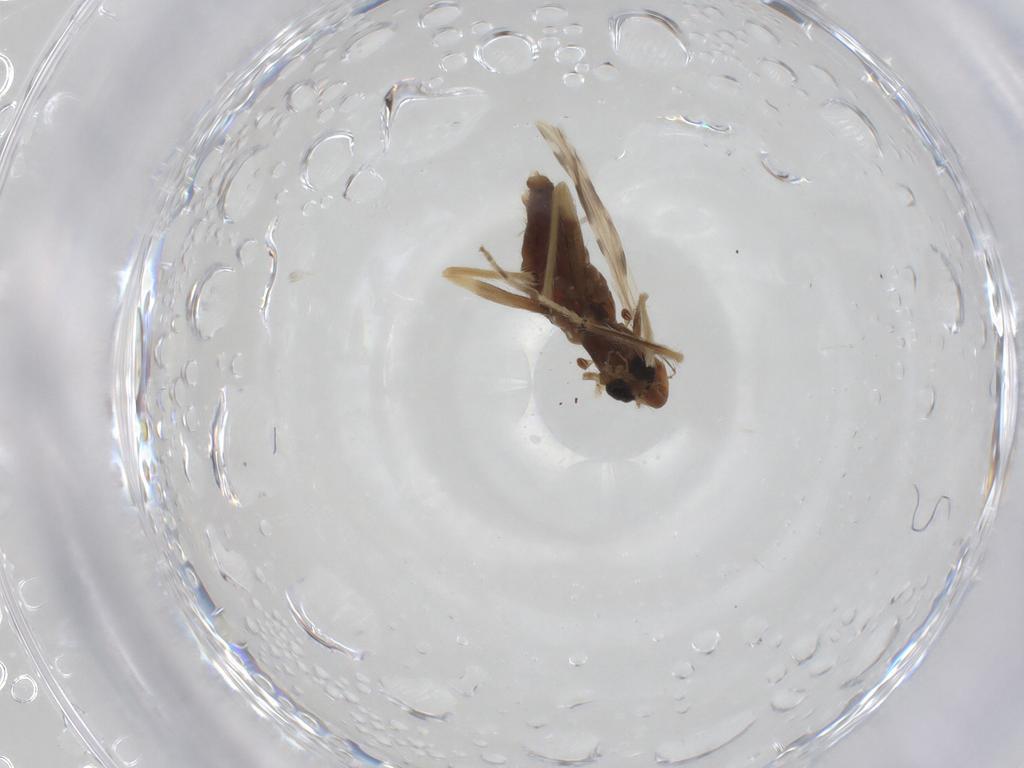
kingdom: Animalia
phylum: Arthropoda
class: Insecta
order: Diptera
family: Chironomidae
